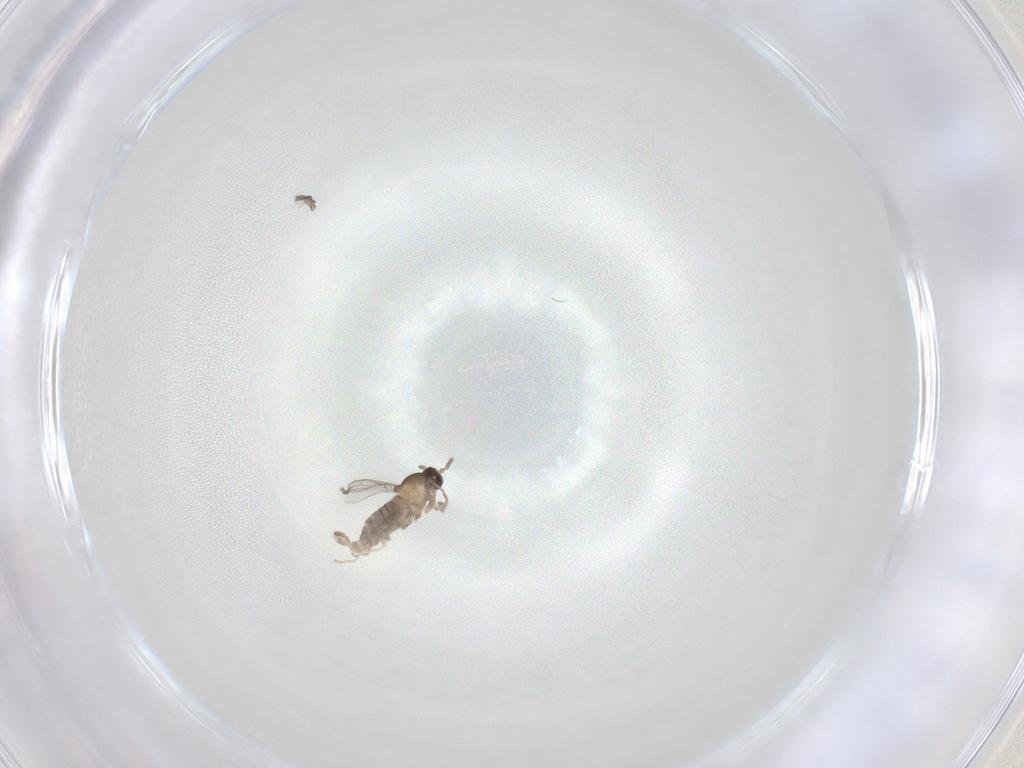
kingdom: Animalia
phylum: Arthropoda
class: Insecta
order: Diptera
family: Cecidomyiidae
